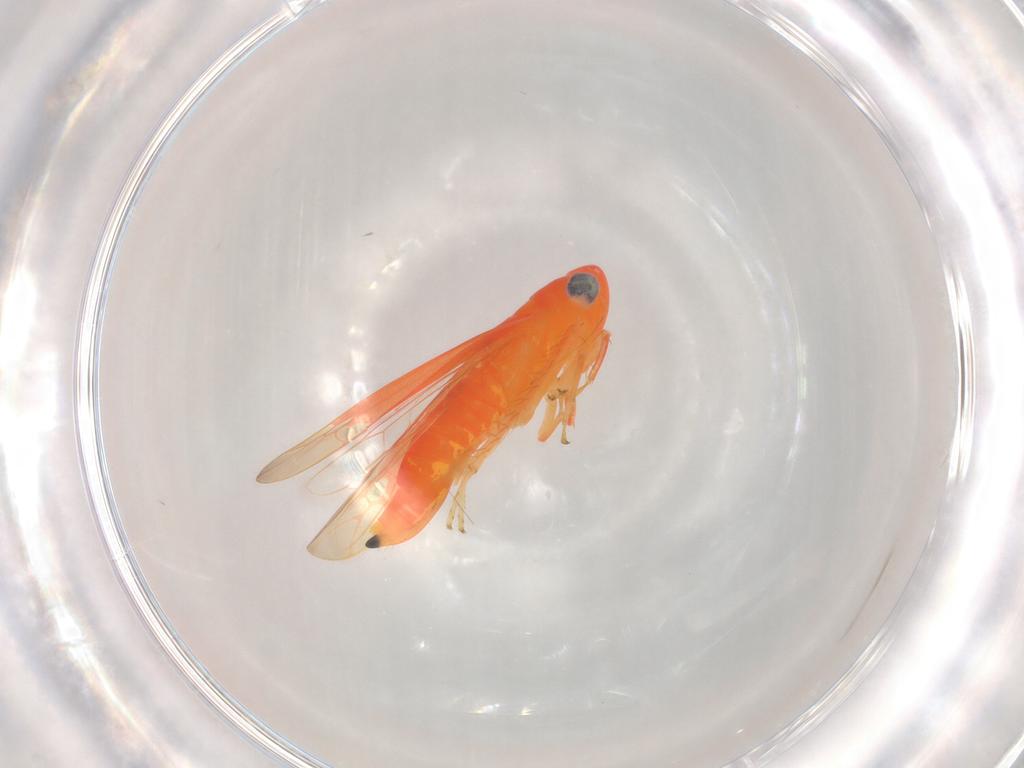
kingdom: Animalia
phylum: Arthropoda
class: Insecta
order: Hemiptera
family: Cicadellidae
